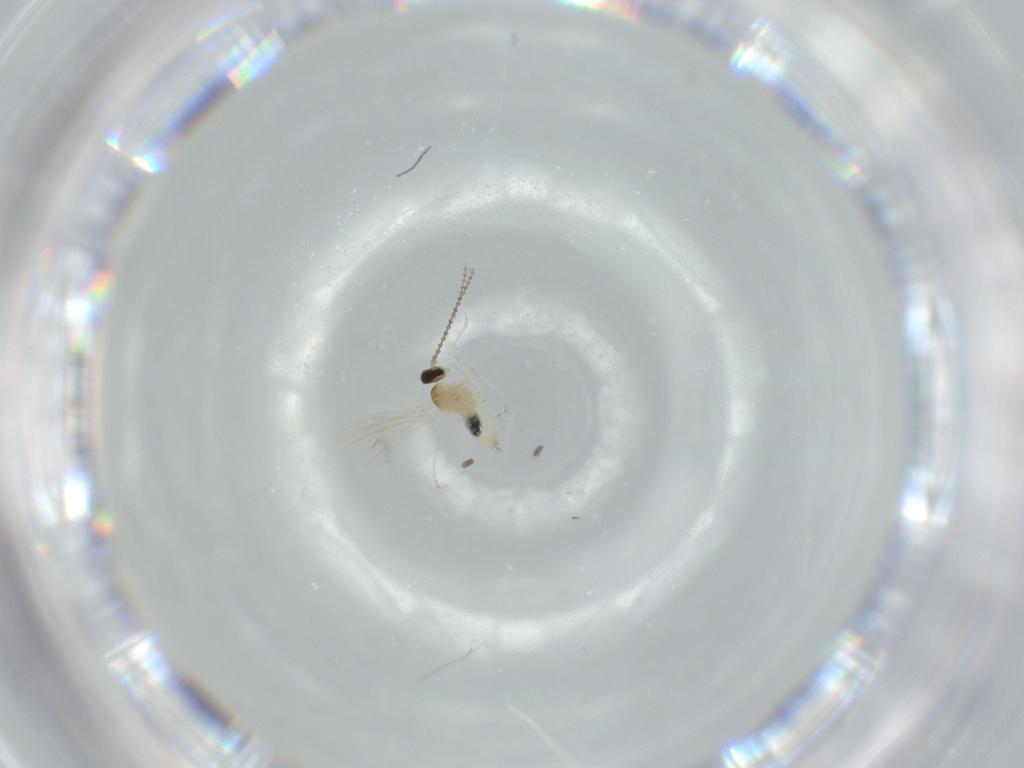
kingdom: Animalia
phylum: Arthropoda
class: Insecta
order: Diptera
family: Cecidomyiidae
